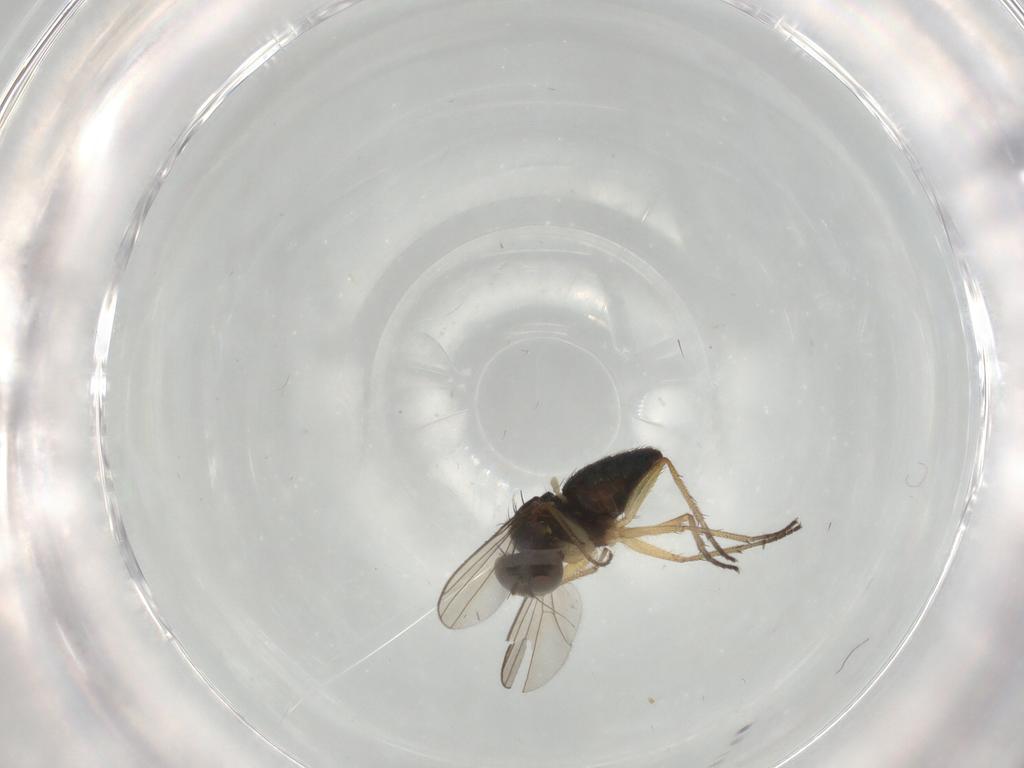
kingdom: Animalia
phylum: Arthropoda
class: Insecta
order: Diptera
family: Dolichopodidae
